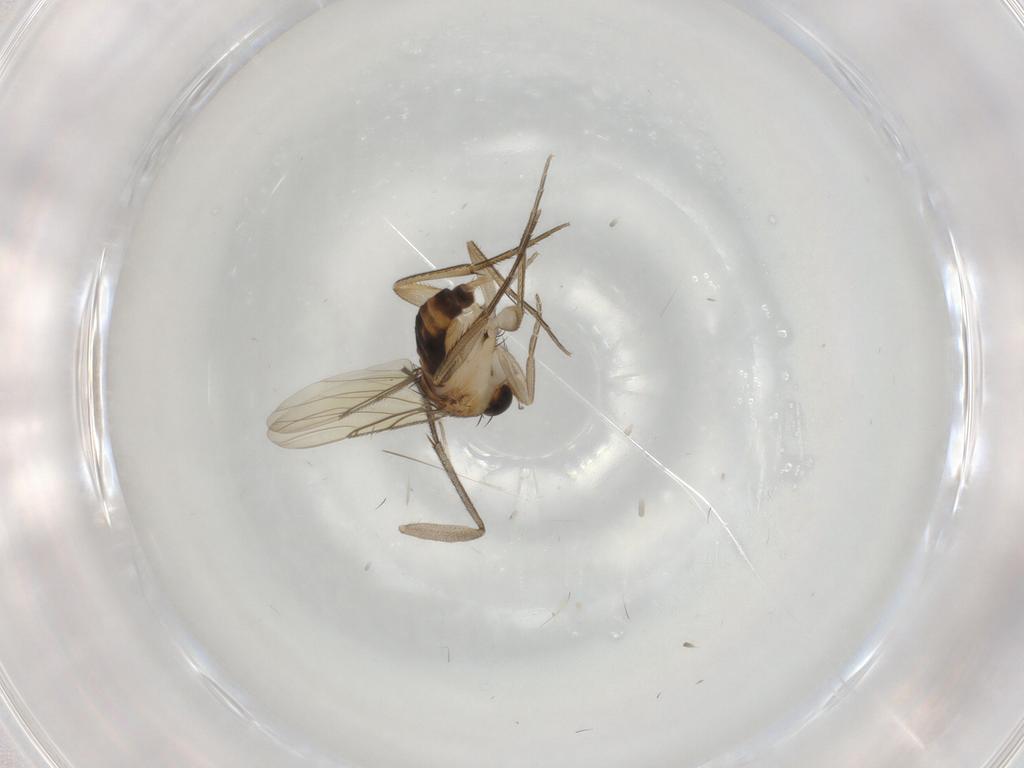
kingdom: Animalia
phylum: Arthropoda
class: Insecta
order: Diptera
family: Phoridae
